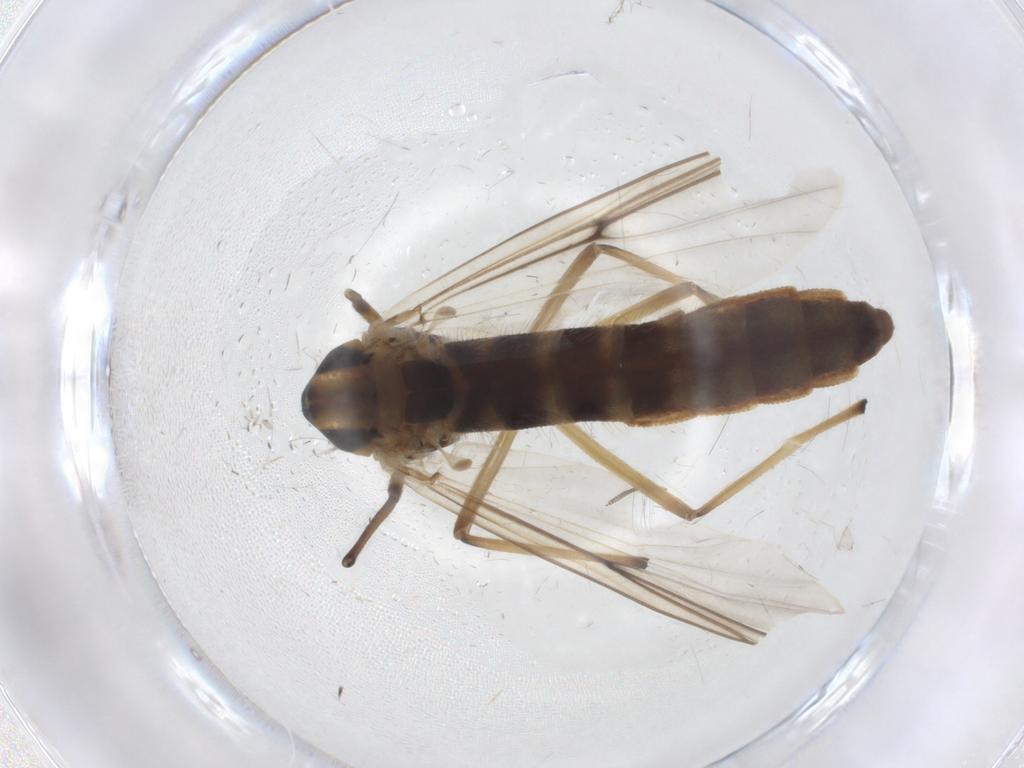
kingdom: Animalia
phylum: Arthropoda
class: Insecta
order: Diptera
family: Chironomidae
